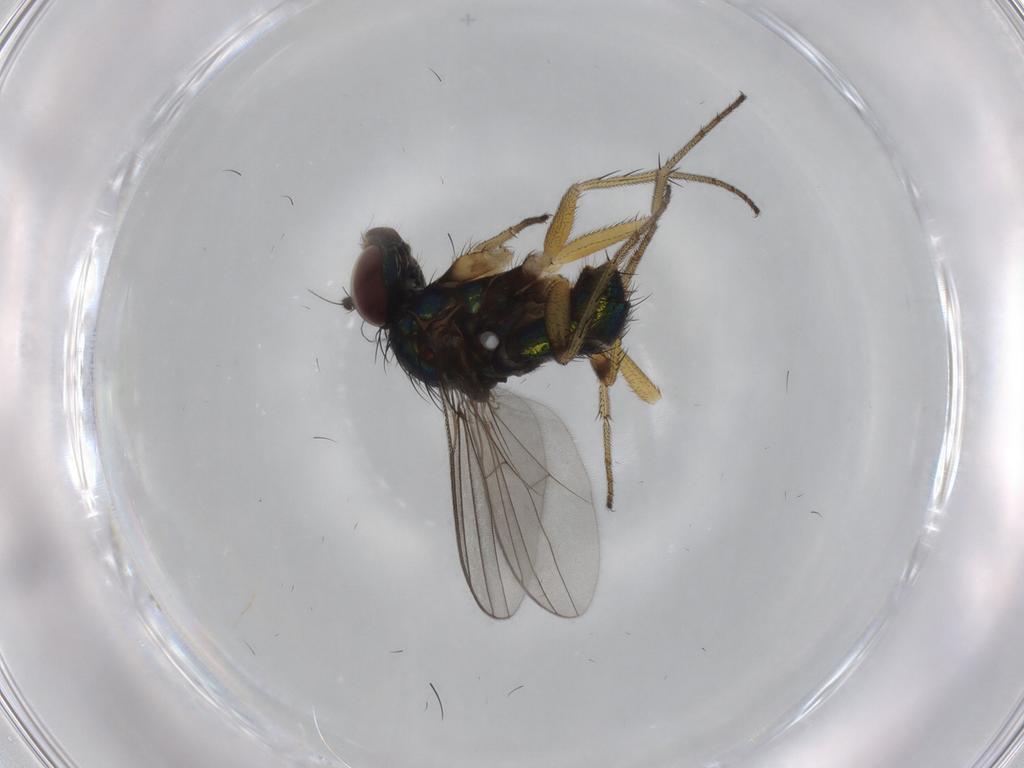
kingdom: Animalia
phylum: Arthropoda
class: Insecta
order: Diptera
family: Dolichopodidae
